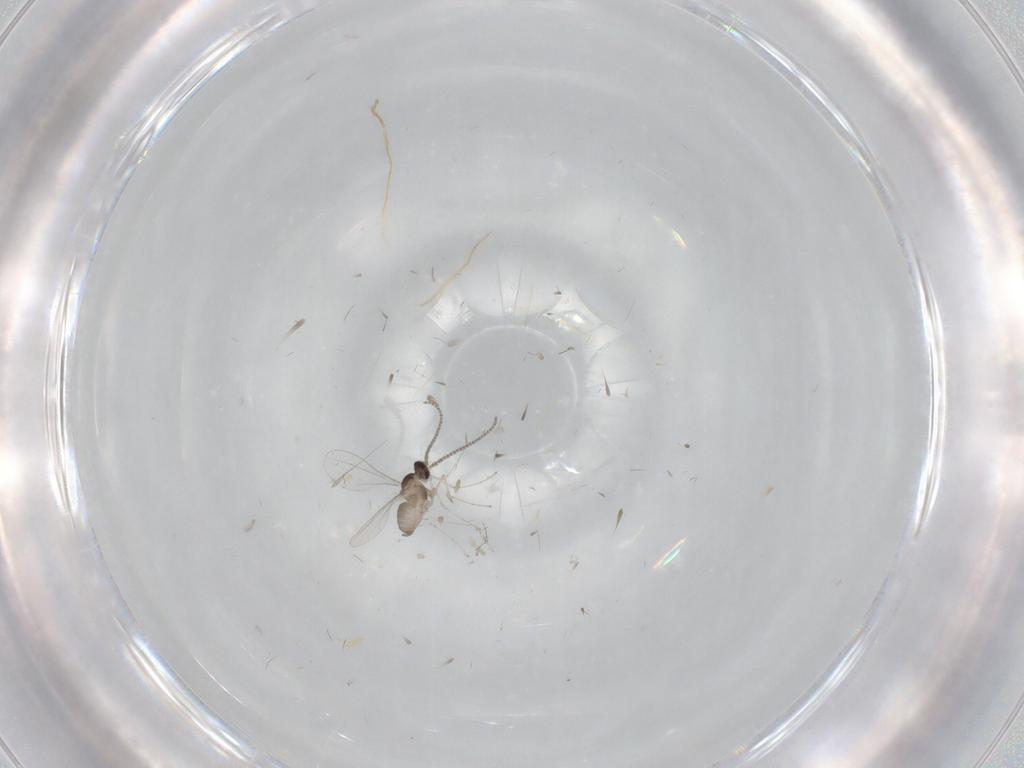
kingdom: Animalia
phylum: Arthropoda
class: Insecta
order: Diptera
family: Cecidomyiidae
